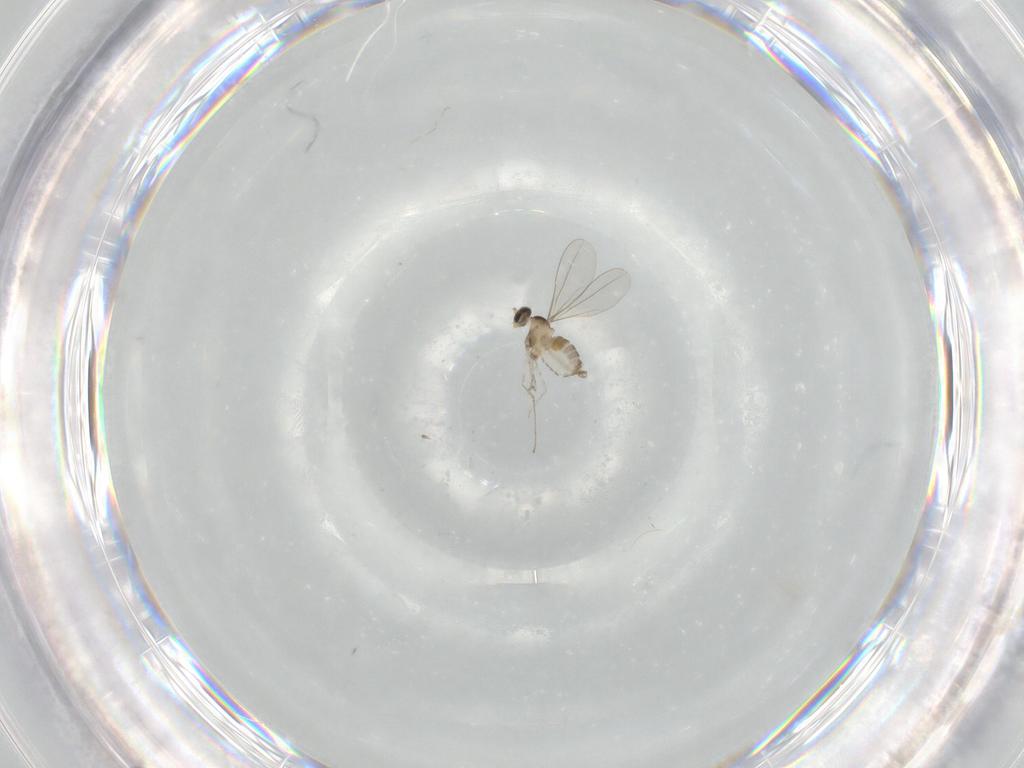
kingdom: Animalia
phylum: Arthropoda
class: Insecta
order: Diptera
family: Cecidomyiidae
